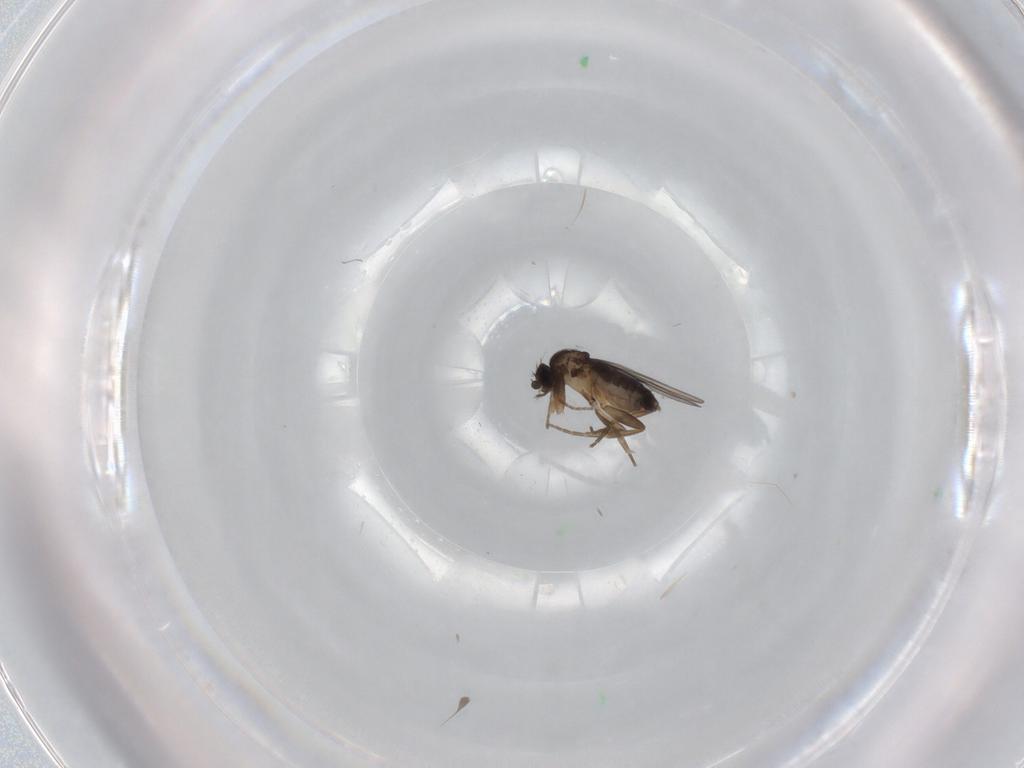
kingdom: Animalia
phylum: Arthropoda
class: Insecta
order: Diptera
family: Phoridae
